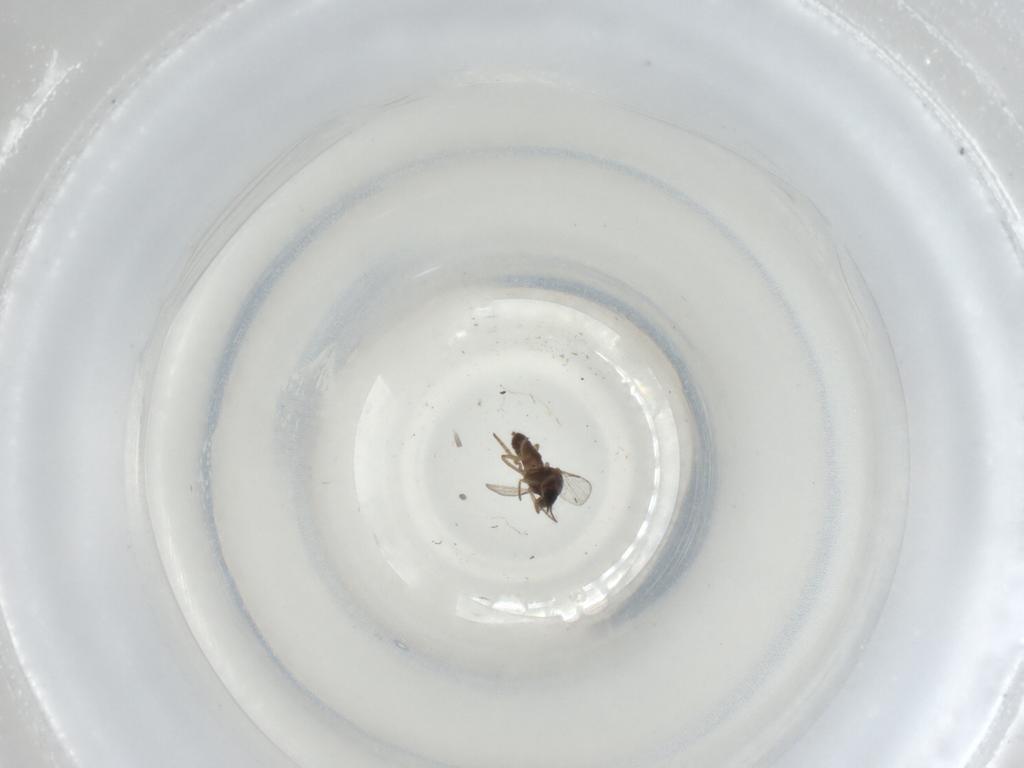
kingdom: Animalia
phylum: Arthropoda
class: Insecta
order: Diptera
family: Ceratopogonidae
